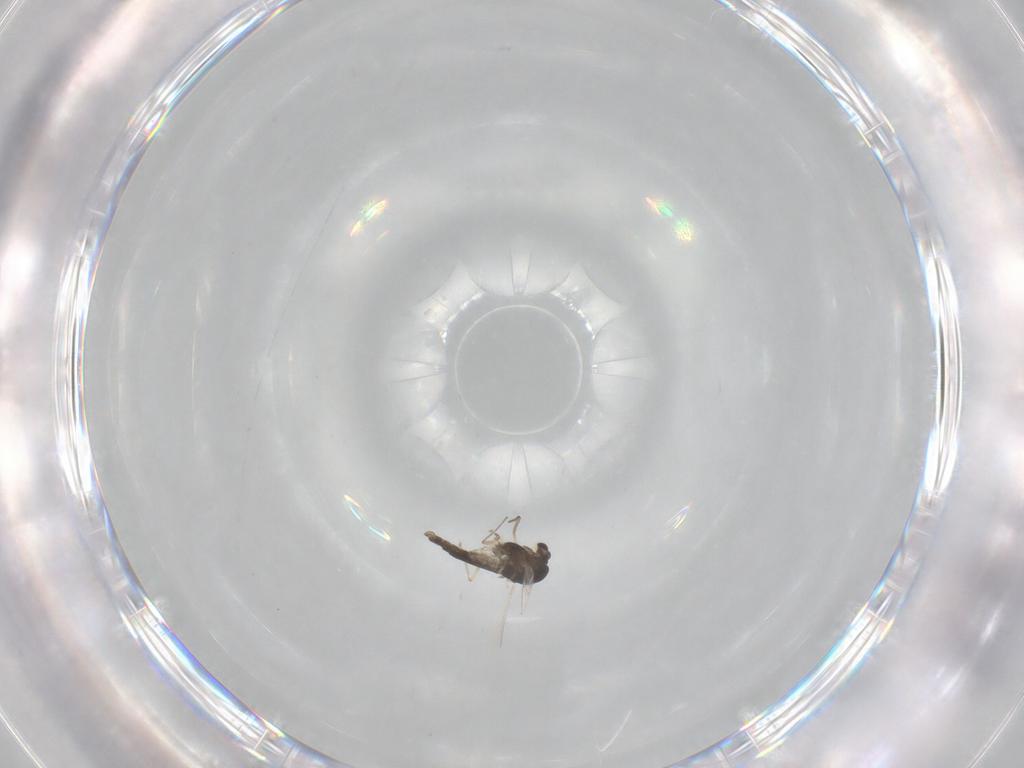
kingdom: Animalia
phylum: Arthropoda
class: Insecta
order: Diptera
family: Chironomidae
